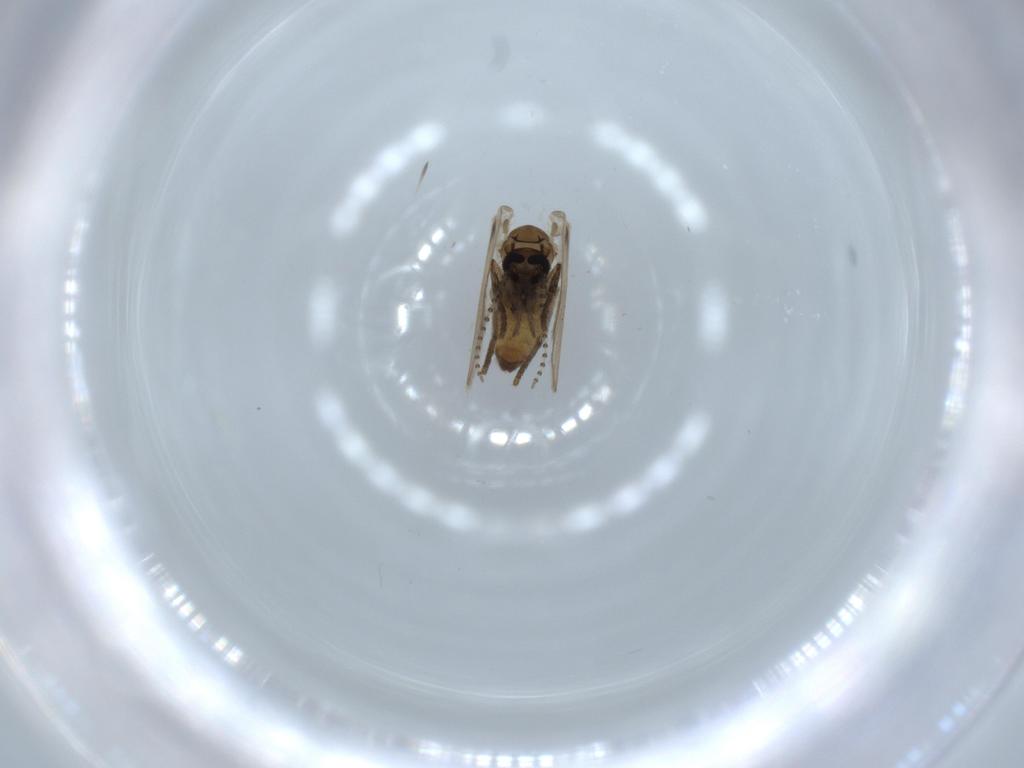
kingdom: Animalia
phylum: Arthropoda
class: Insecta
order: Diptera
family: Psychodidae
